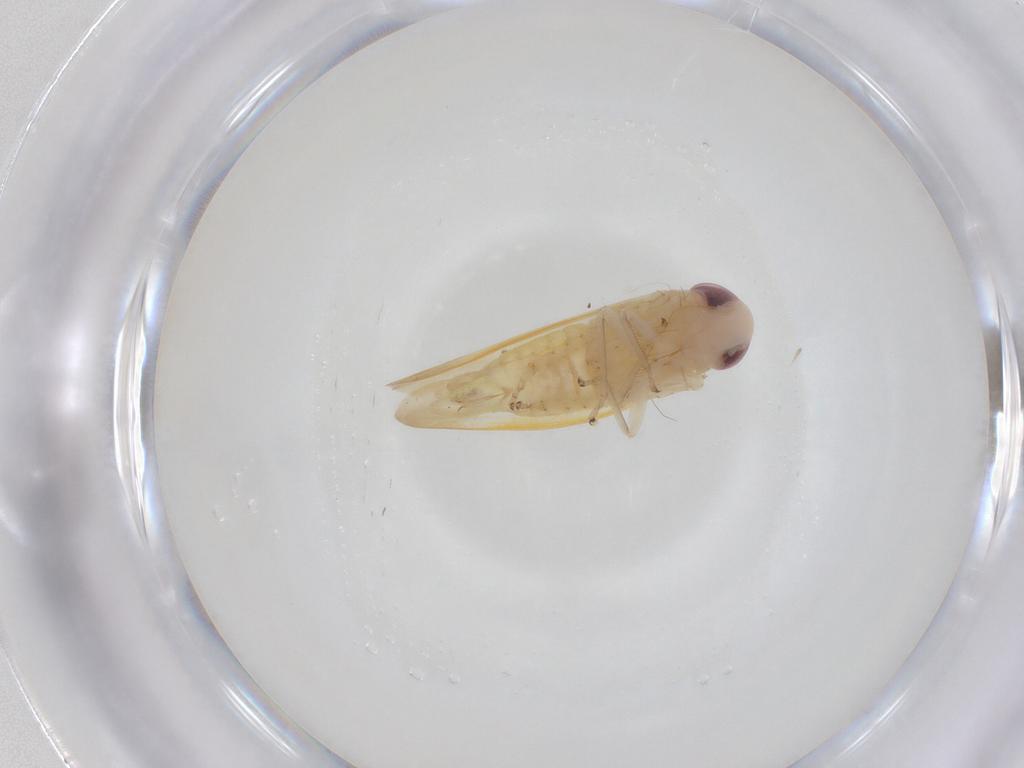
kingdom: Animalia
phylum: Arthropoda
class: Insecta
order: Hemiptera
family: Cicadellidae
